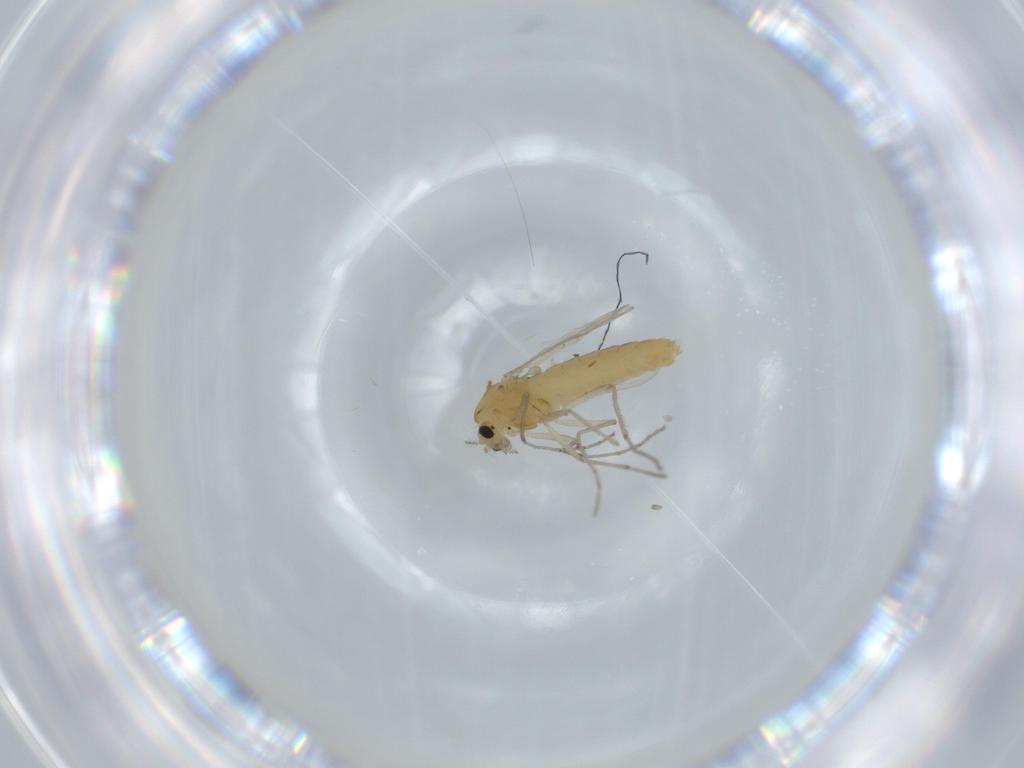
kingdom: Animalia
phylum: Arthropoda
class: Insecta
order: Diptera
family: Chironomidae
